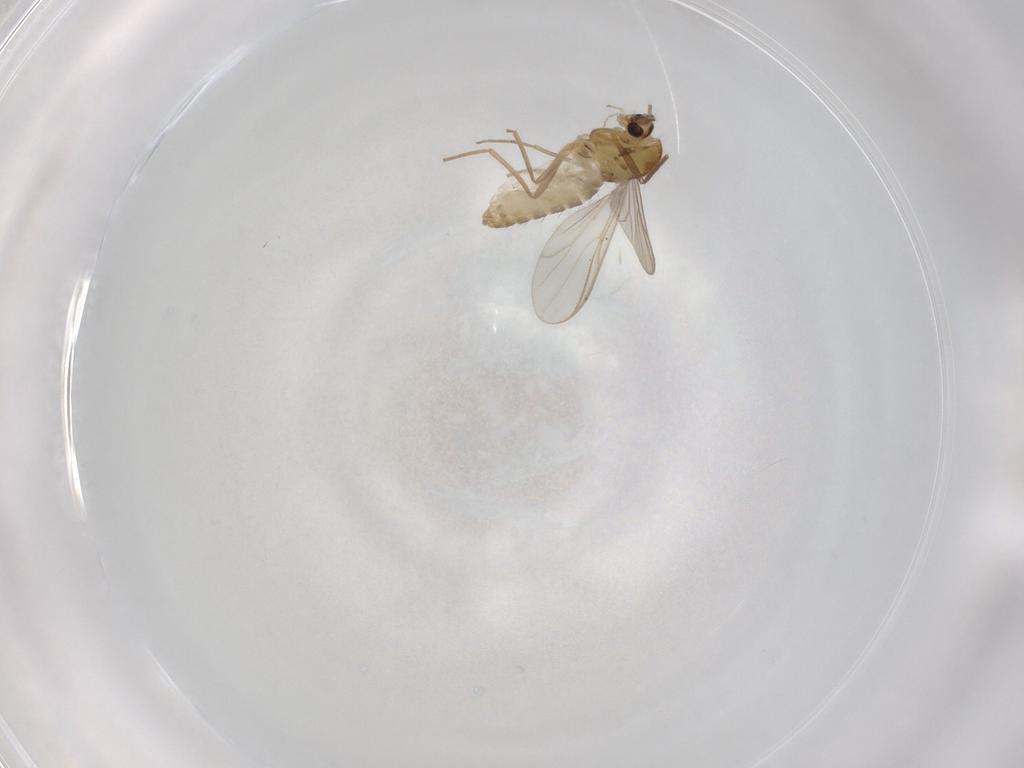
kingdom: Animalia
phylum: Arthropoda
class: Insecta
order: Diptera
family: Chironomidae
